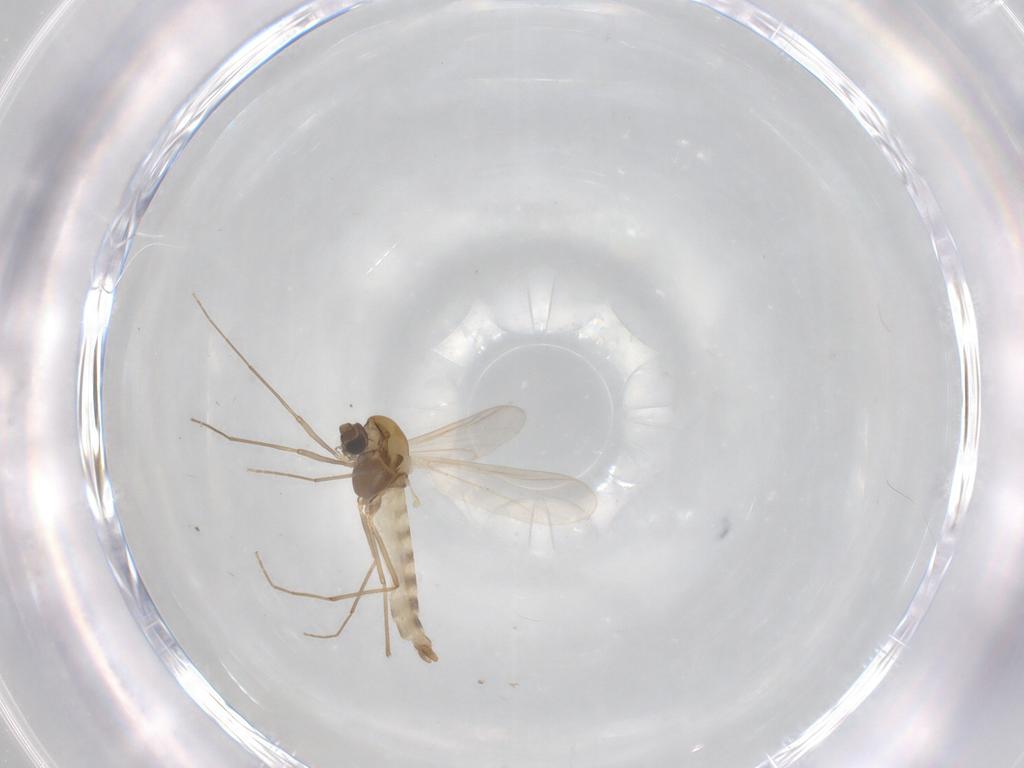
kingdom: Animalia
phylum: Arthropoda
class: Insecta
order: Diptera
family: Chironomidae
